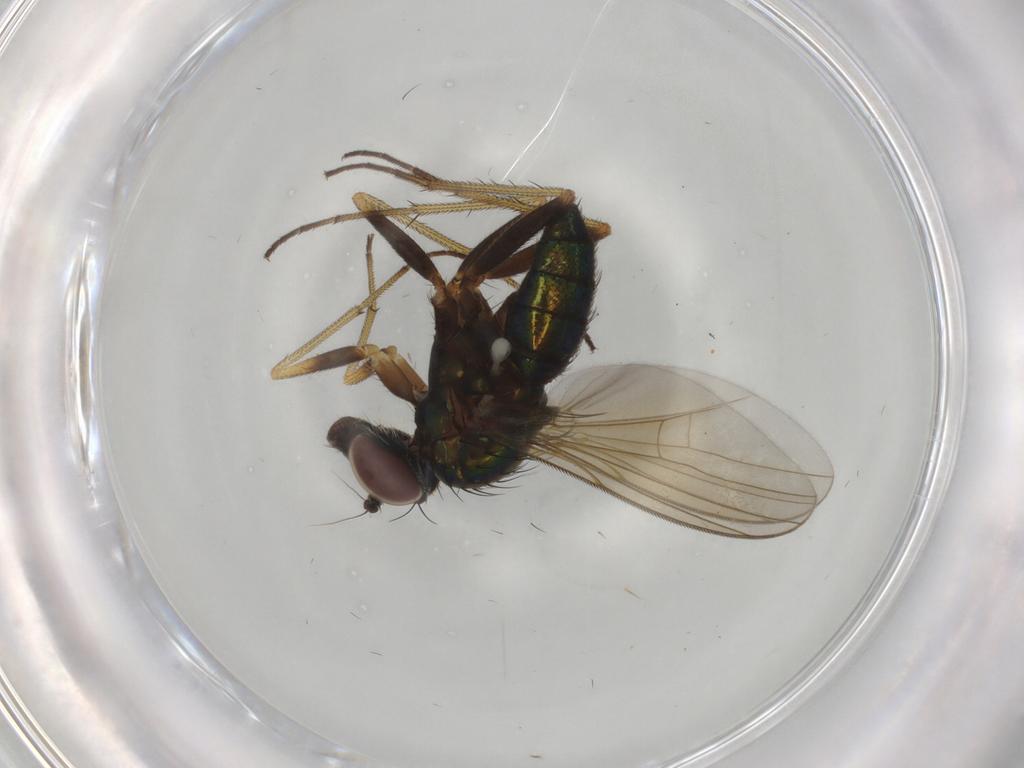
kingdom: Animalia
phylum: Arthropoda
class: Insecta
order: Diptera
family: Dolichopodidae
